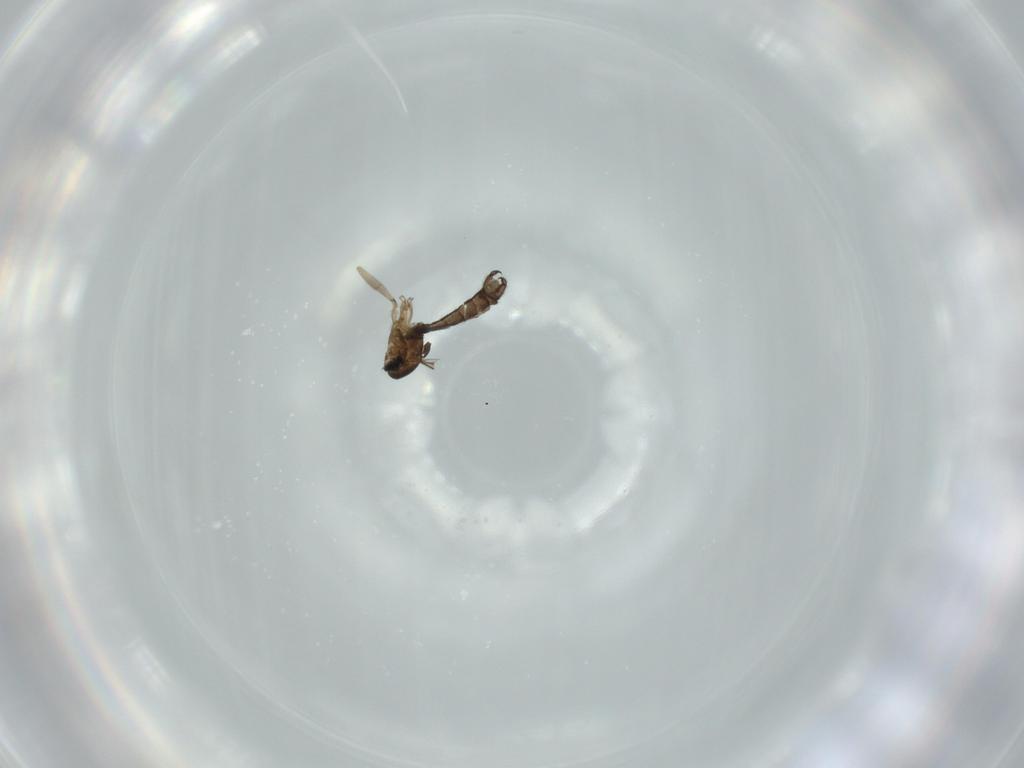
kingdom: Animalia
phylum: Arthropoda
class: Insecta
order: Diptera
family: Sciaridae
